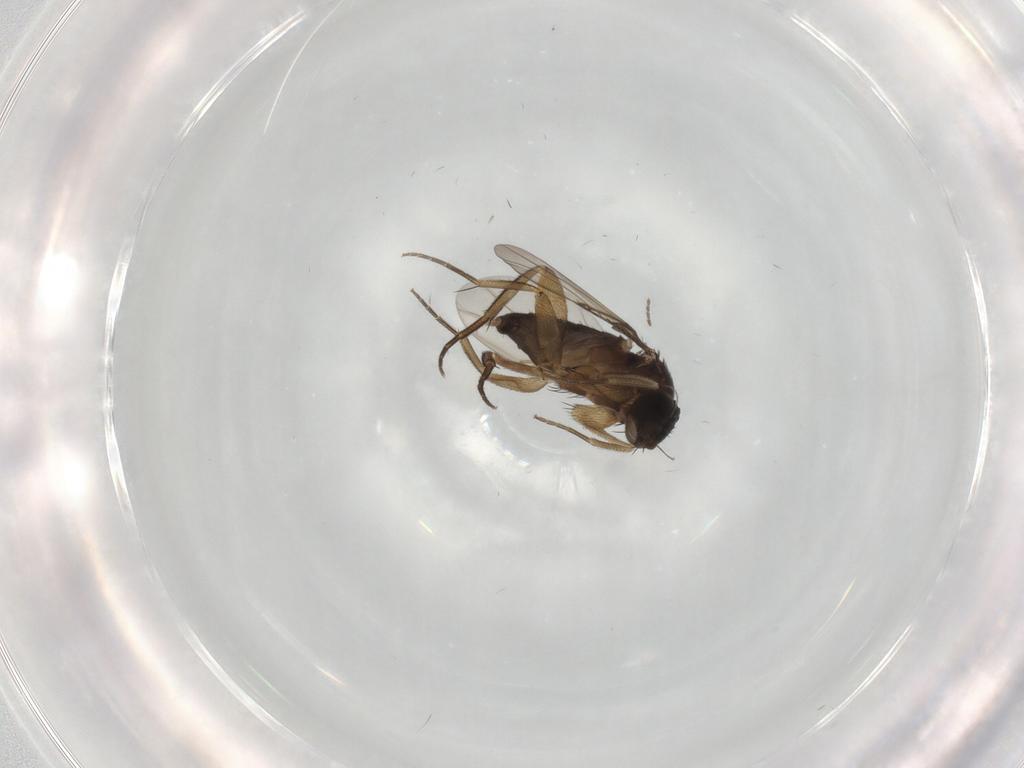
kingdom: Animalia
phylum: Arthropoda
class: Insecta
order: Diptera
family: Phoridae
